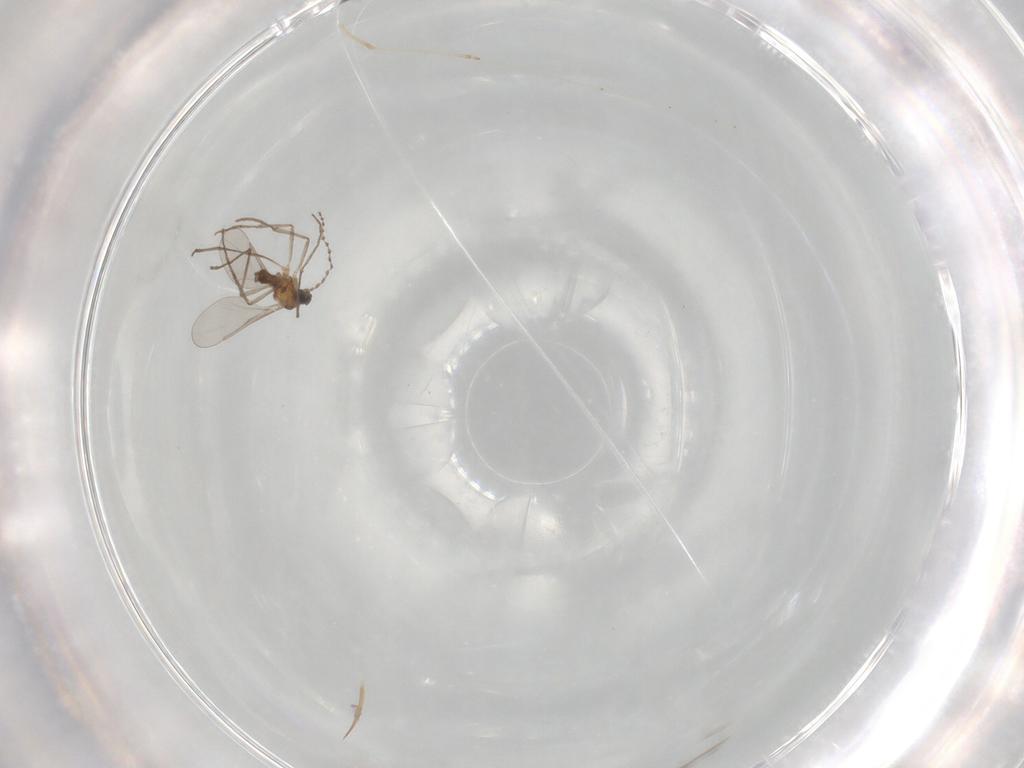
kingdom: Animalia
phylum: Arthropoda
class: Insecta
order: Diptera
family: Cecidomyiidae
